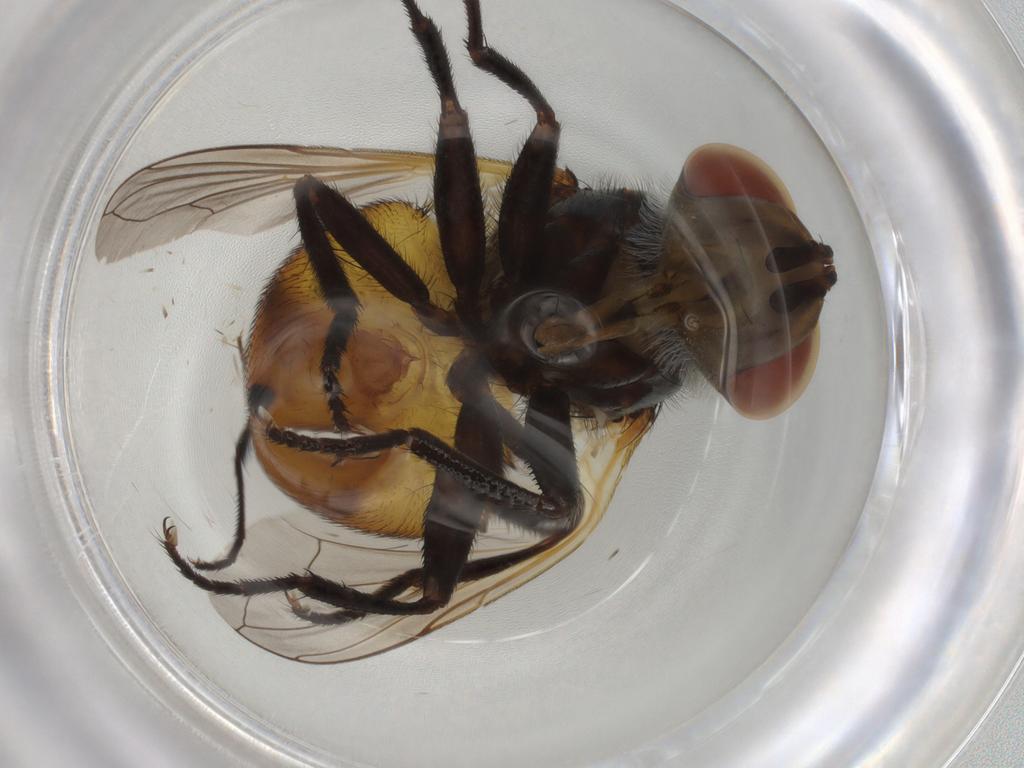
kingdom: Animalia
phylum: Arthropoda
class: Insecta
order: Diptera
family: Tachinidae
